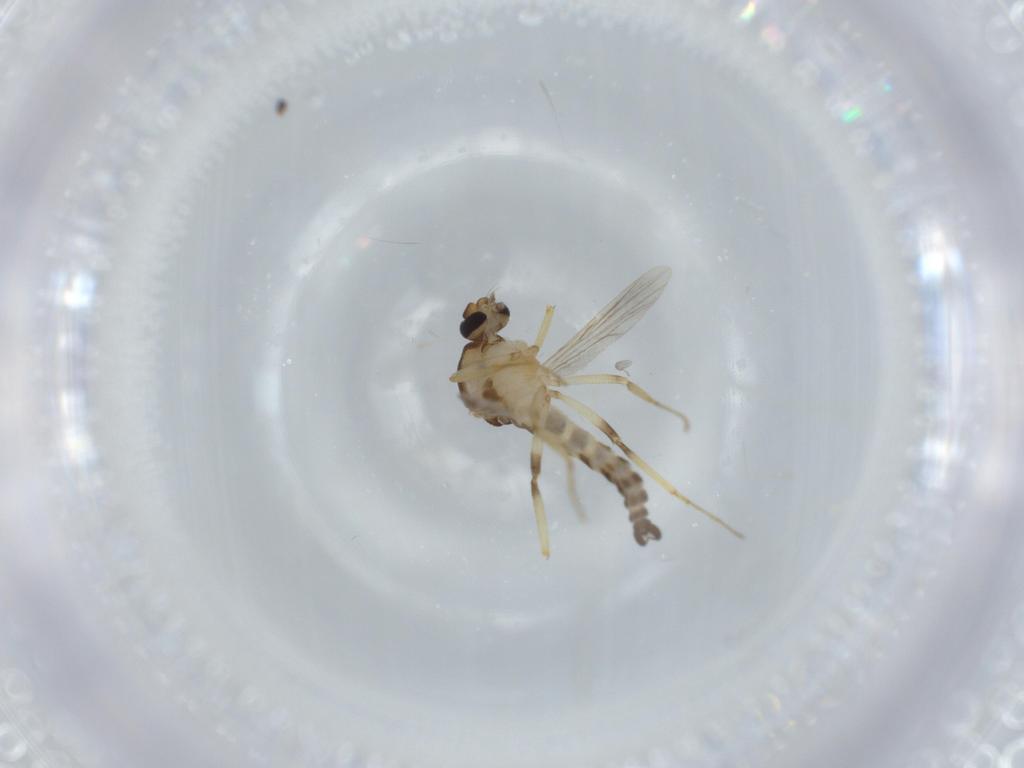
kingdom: Animalia
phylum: Arthropoda
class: Insecta
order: Diptera
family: Ceratopogonidae
